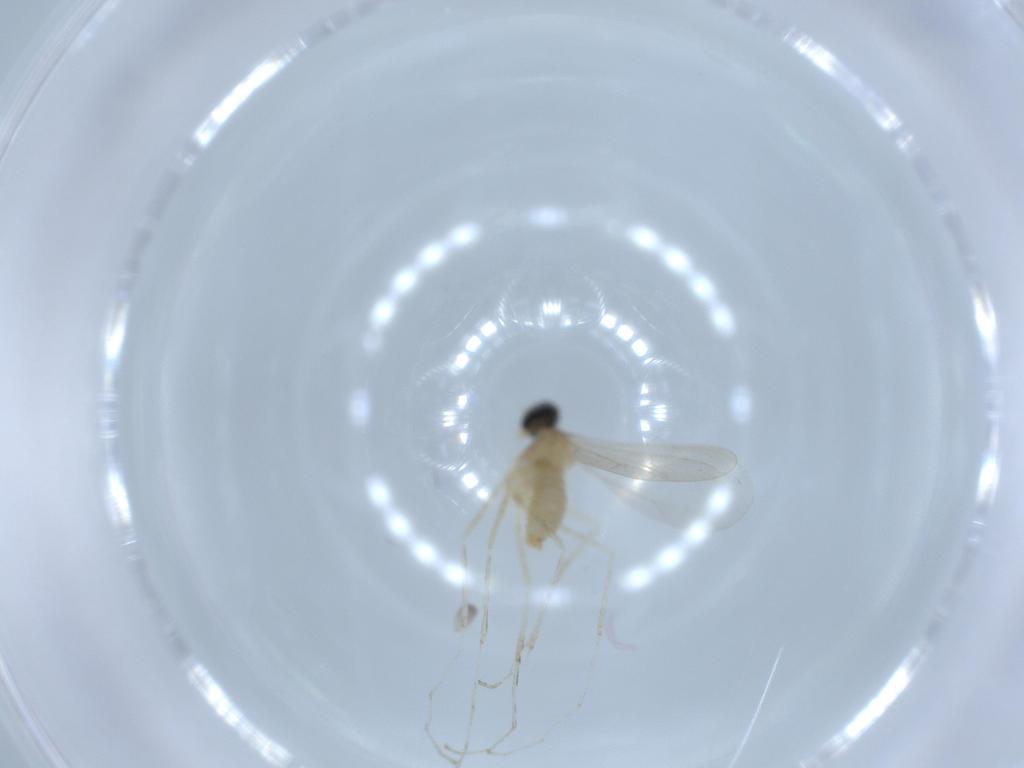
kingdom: Animalia
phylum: Arthropoda
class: Insecta
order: Diptera
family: Cecidomyiidae
